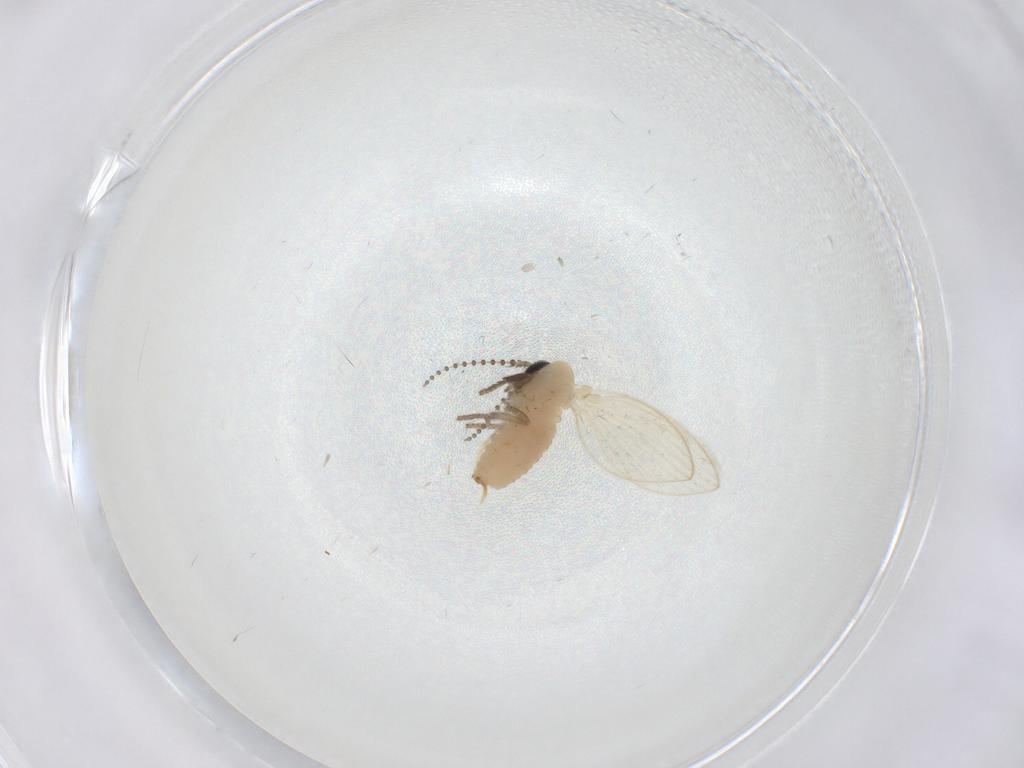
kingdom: Animalia
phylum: Arthropoda
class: Insecta
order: Diptera
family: Psychodidae
